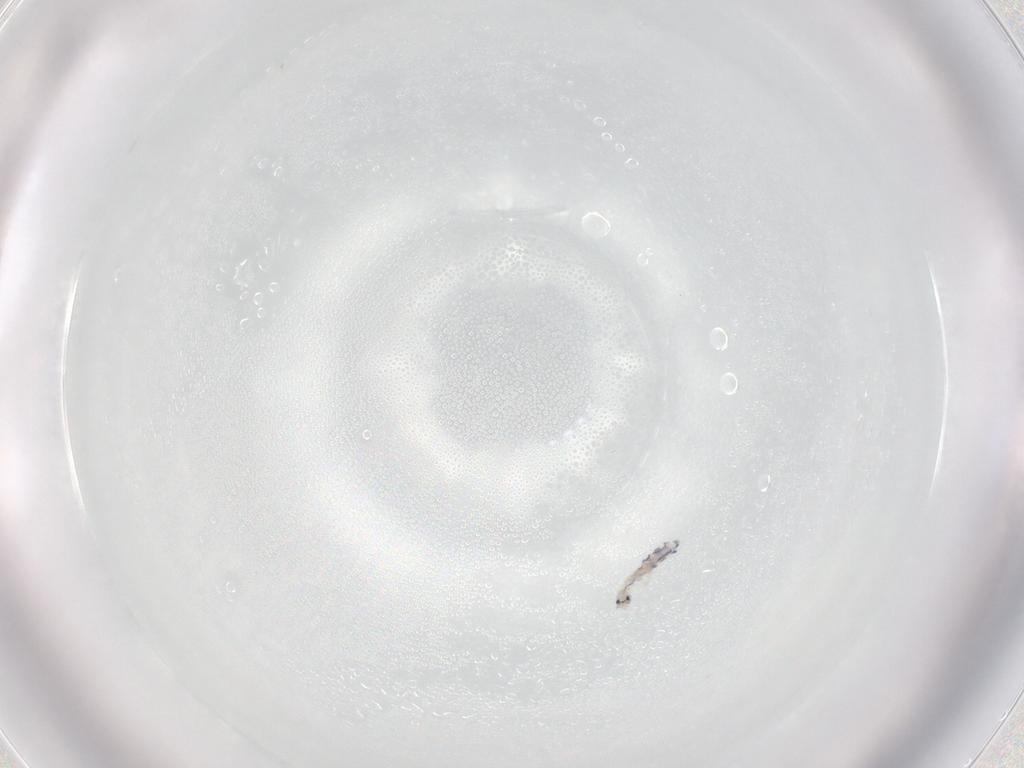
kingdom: Animalia
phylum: Arthropoda
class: Collembola
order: Entomobryomorpha
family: Entomobryidae
